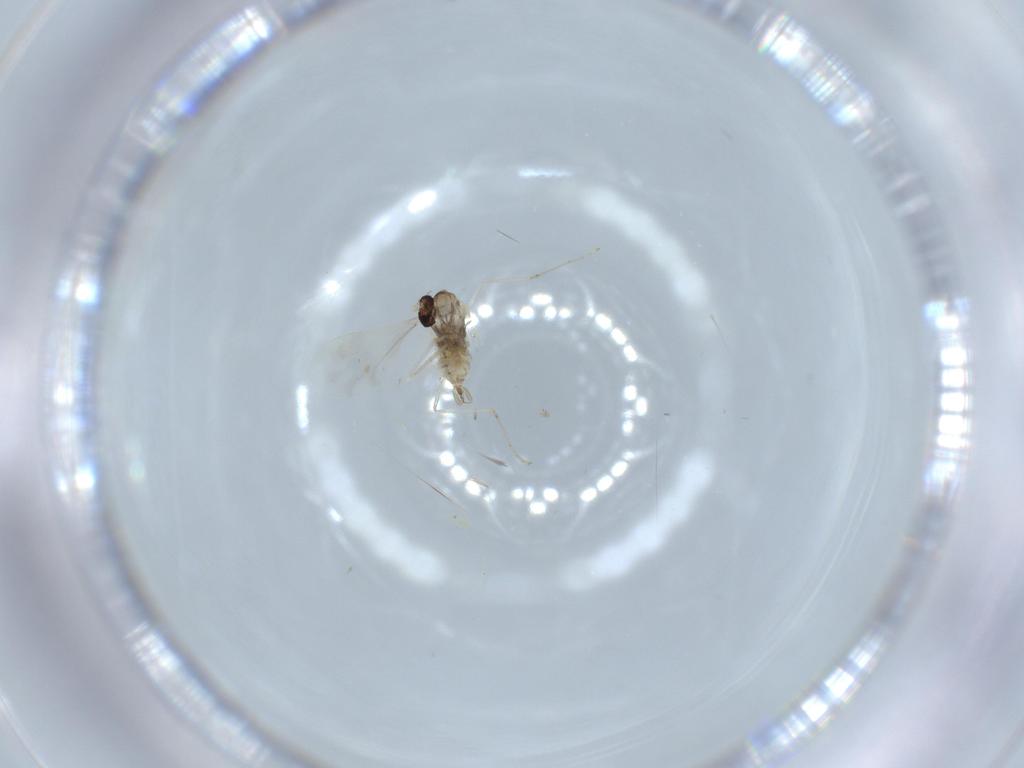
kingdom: Animalia
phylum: Arthropoda
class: Insecta
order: Diptera
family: Cecidomyiidae
